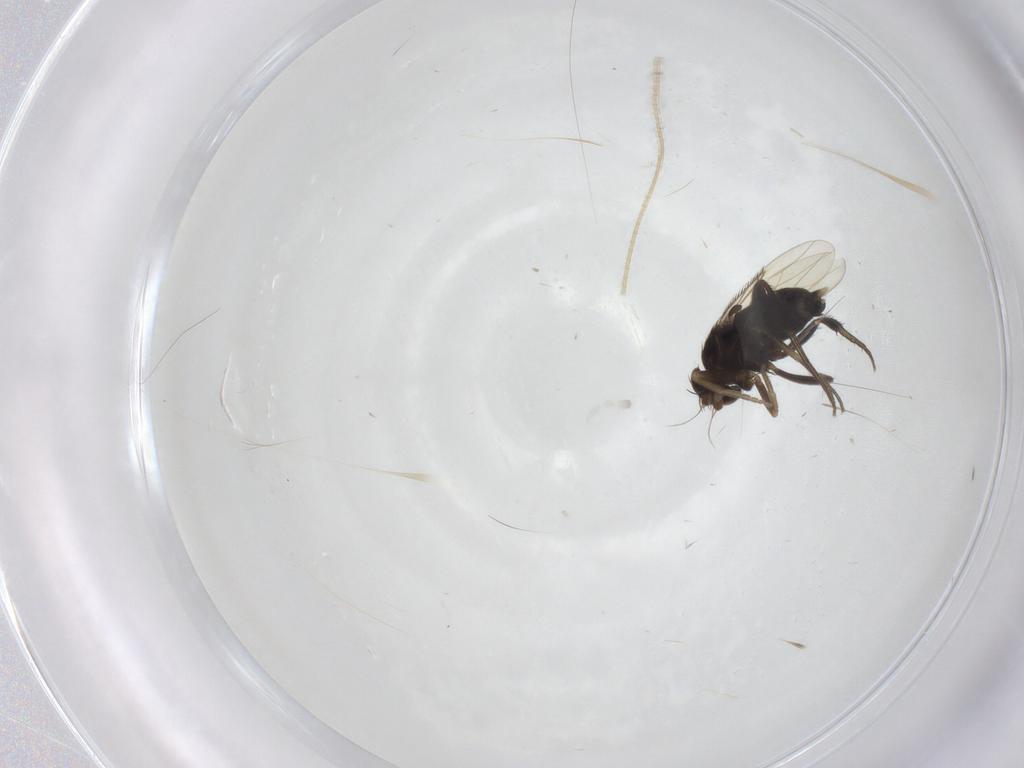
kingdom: Animalia
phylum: Arthropoda
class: Insecta
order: Diptera
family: Phoridae
